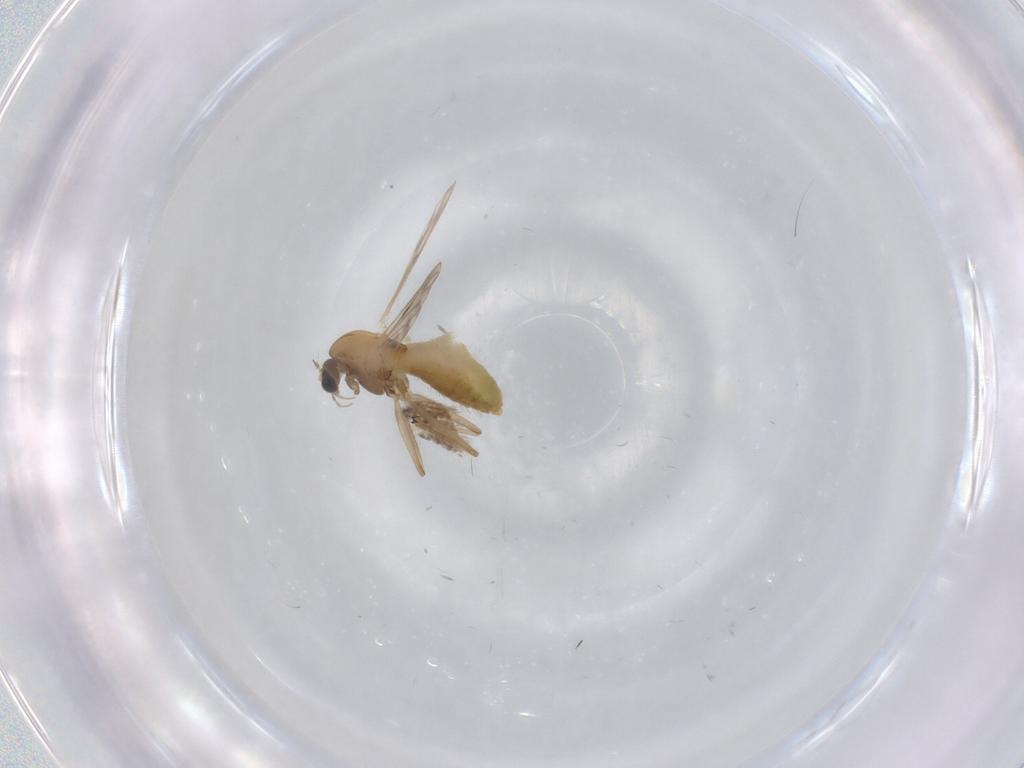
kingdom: Animalia
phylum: Arthropoda
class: Insecta
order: Diptera
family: Chironomidae
